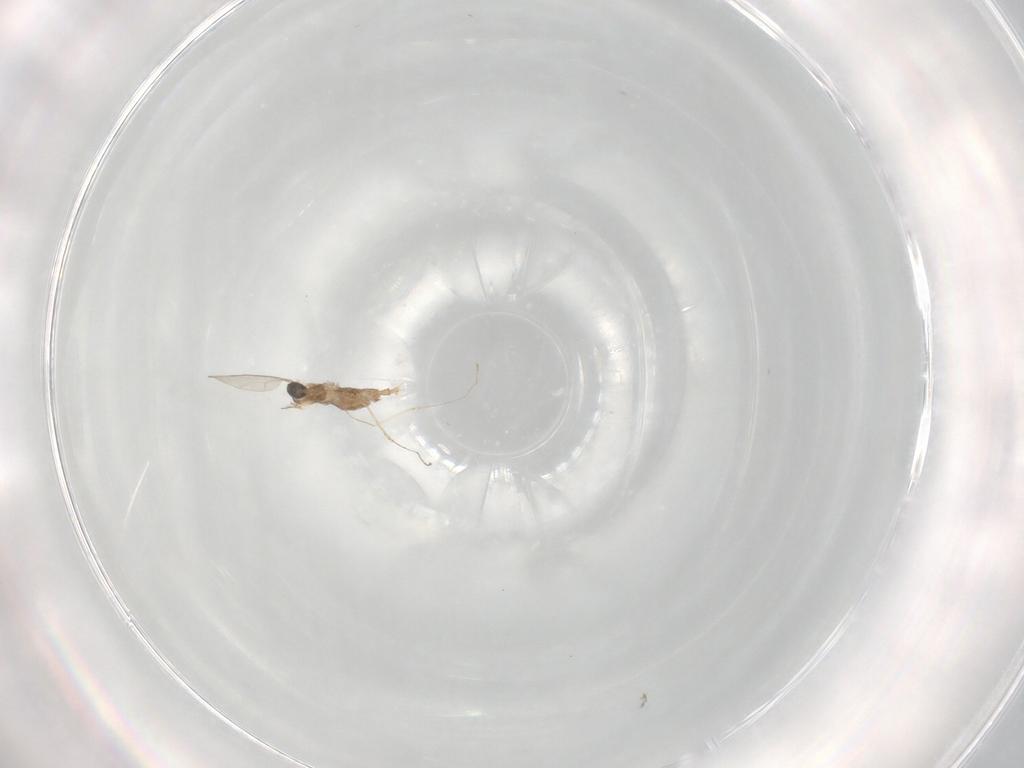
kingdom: Animalia
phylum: Arthropoda
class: Insecta
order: Diptera
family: Cecidomyiidae
